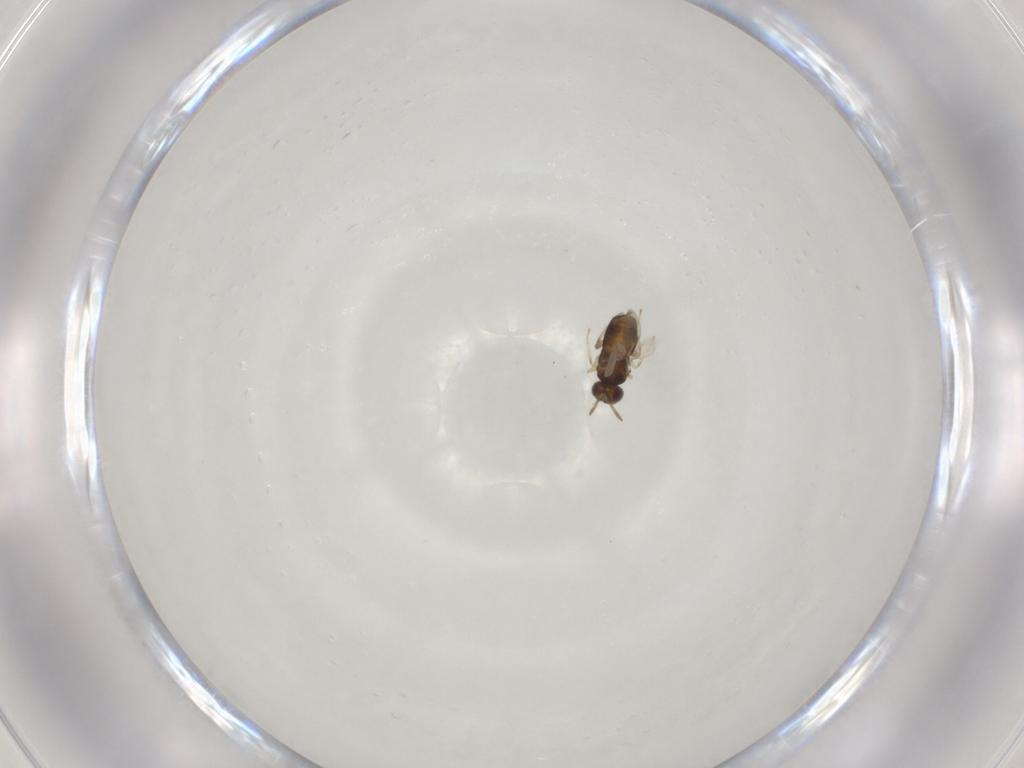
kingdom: Animalia
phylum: Arthropoda
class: Insecta
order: Hymenoptera
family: Aphelinidae
